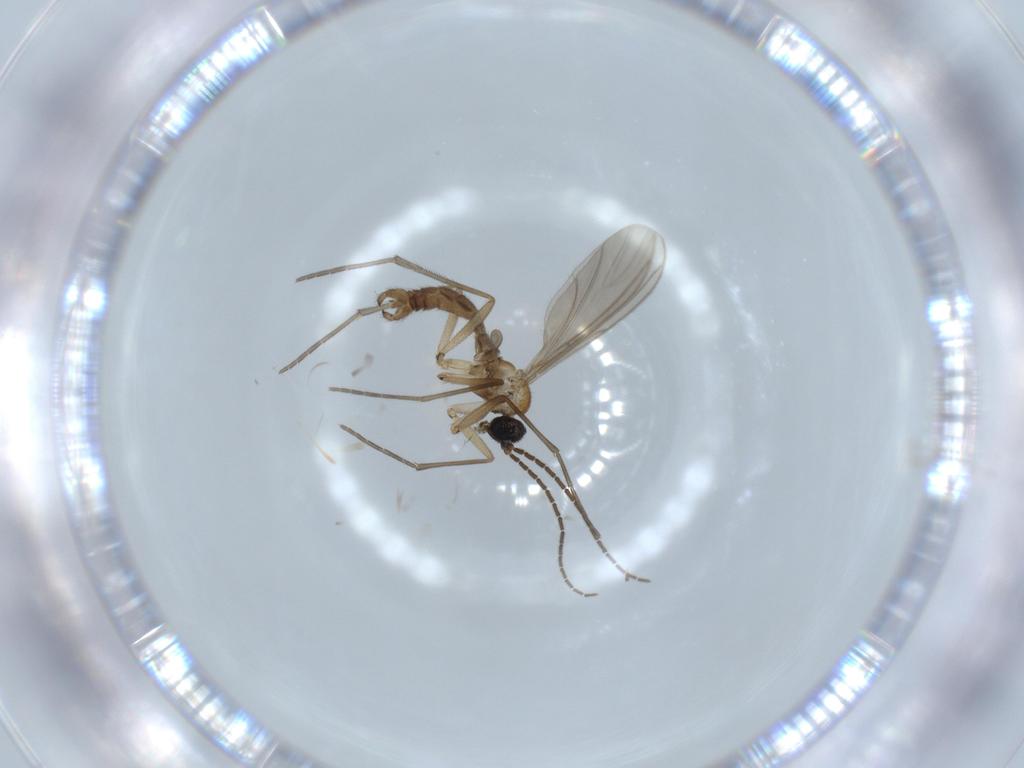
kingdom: Animalia
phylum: Arthropoda
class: Insecta
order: Diptera
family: Sciaridae
